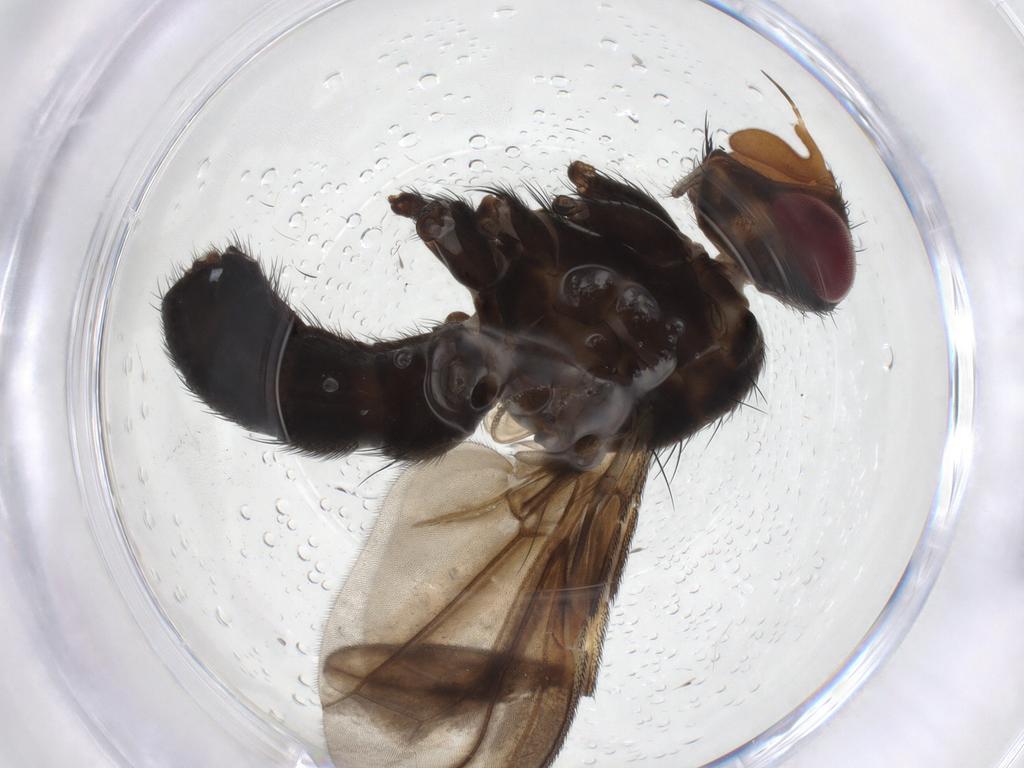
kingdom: Animalia
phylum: Arthropoda
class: Insecta
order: Diptera
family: Calliphoridae
